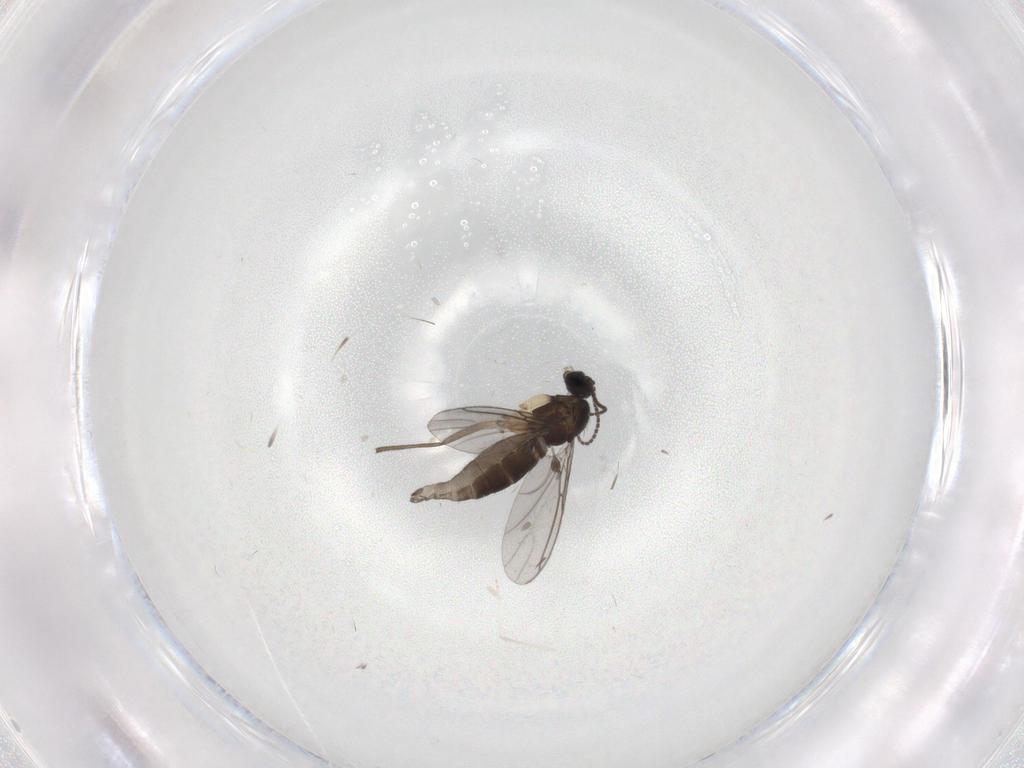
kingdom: Animalia
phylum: Arthropoda
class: Insecta
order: Diptera
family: Sciaridae
